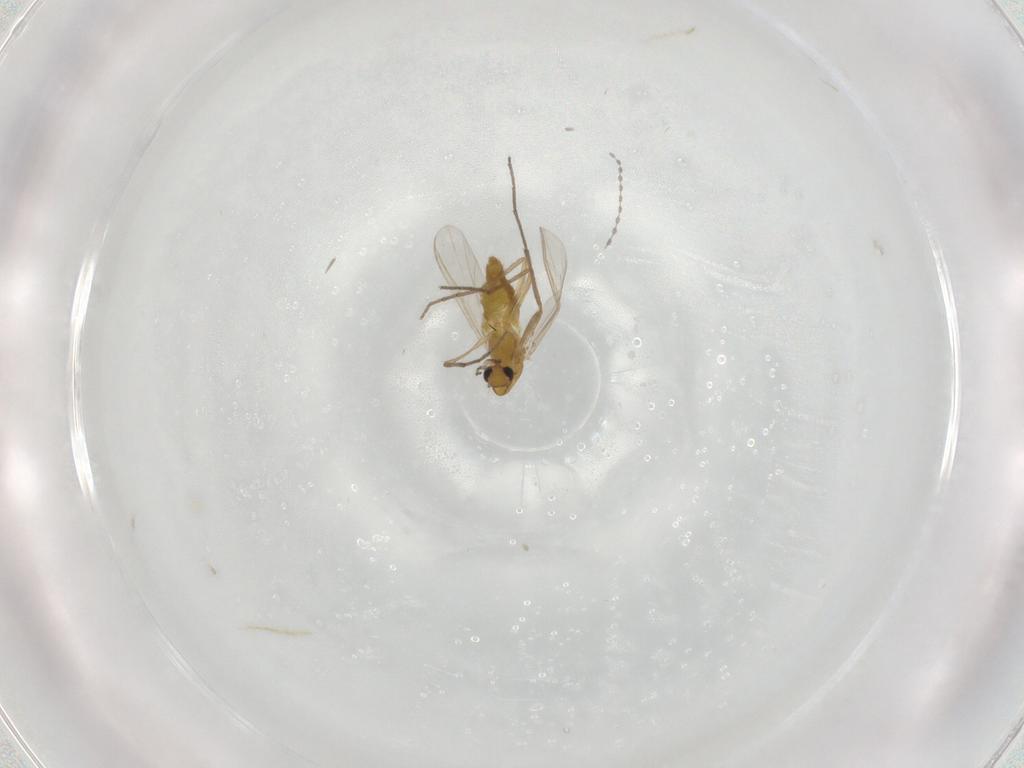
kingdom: Animalia
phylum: Arthropoda
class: Insecta
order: Diptera
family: Chironomidae
